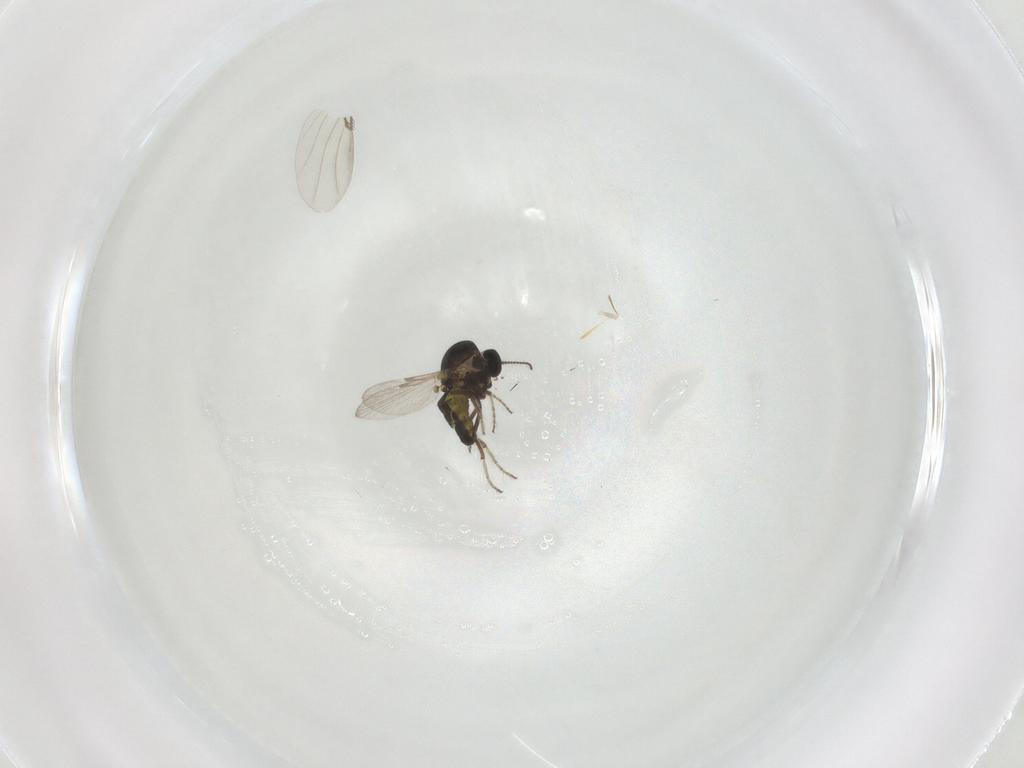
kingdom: Animalia
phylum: Arthropoda
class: Insecta
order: Diptera
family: Ceratopogonidae
